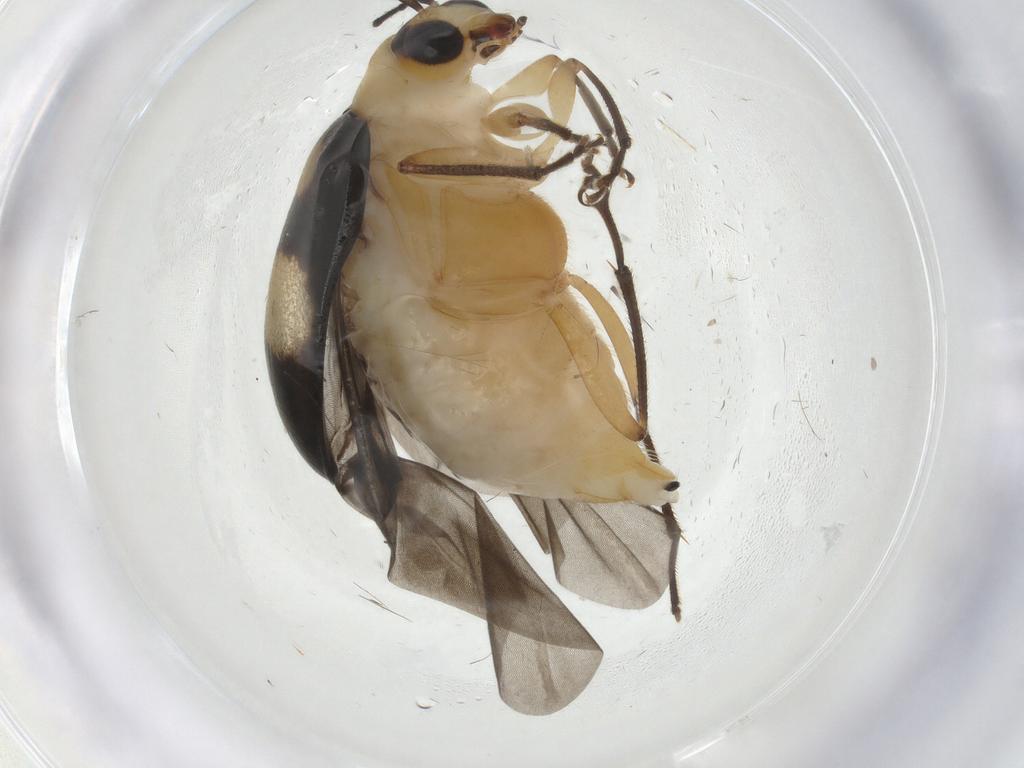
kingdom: Animalia
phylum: Arthropoda
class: Insecta
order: Coleoptera
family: Chrysomelidae
